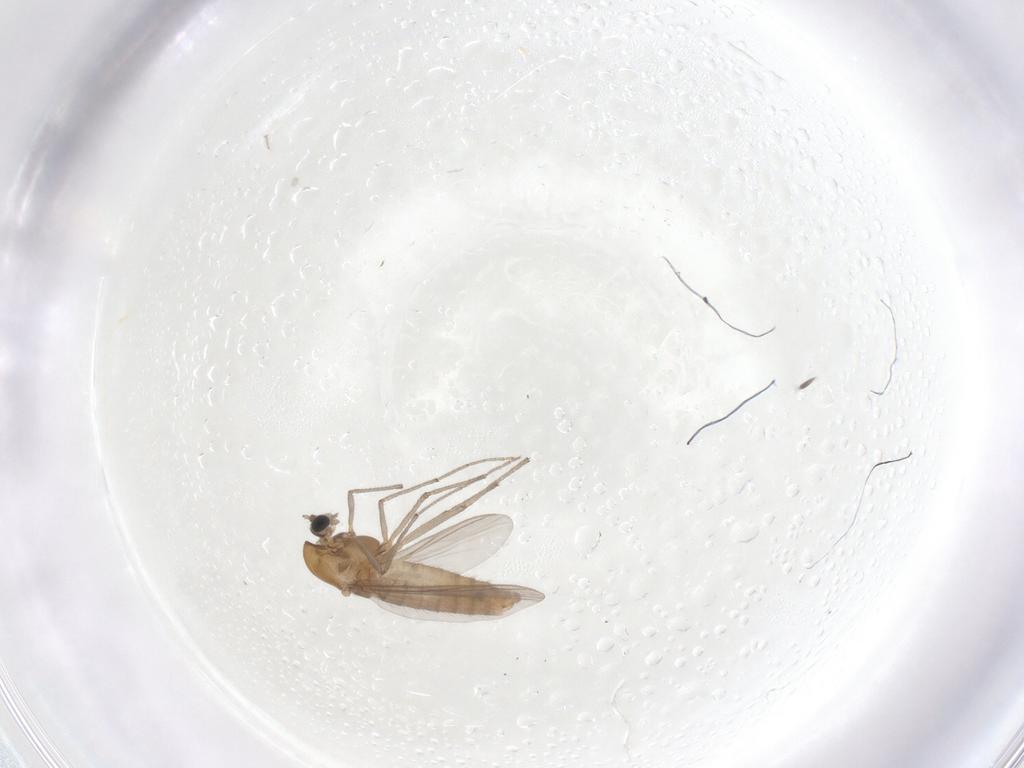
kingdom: Animalia
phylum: Arthropoda
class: Insecta
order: Diptera
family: Chironomidae
